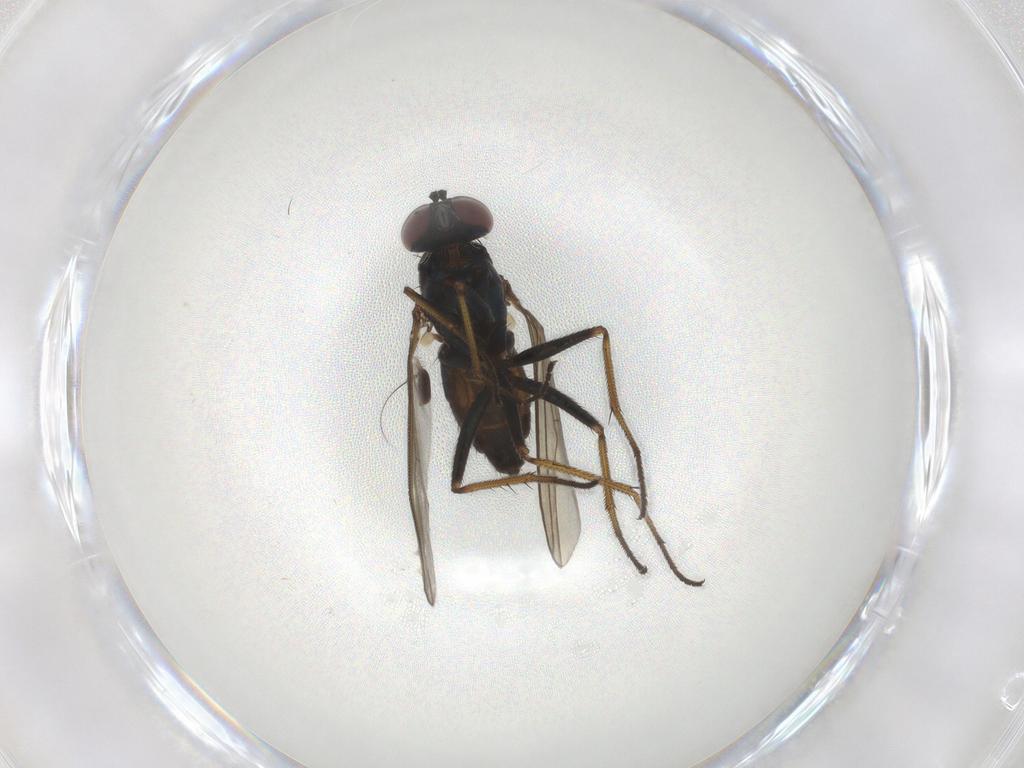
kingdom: Animalia
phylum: Arthropoda
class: Insecta
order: Diptera
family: Dolichopodidae
